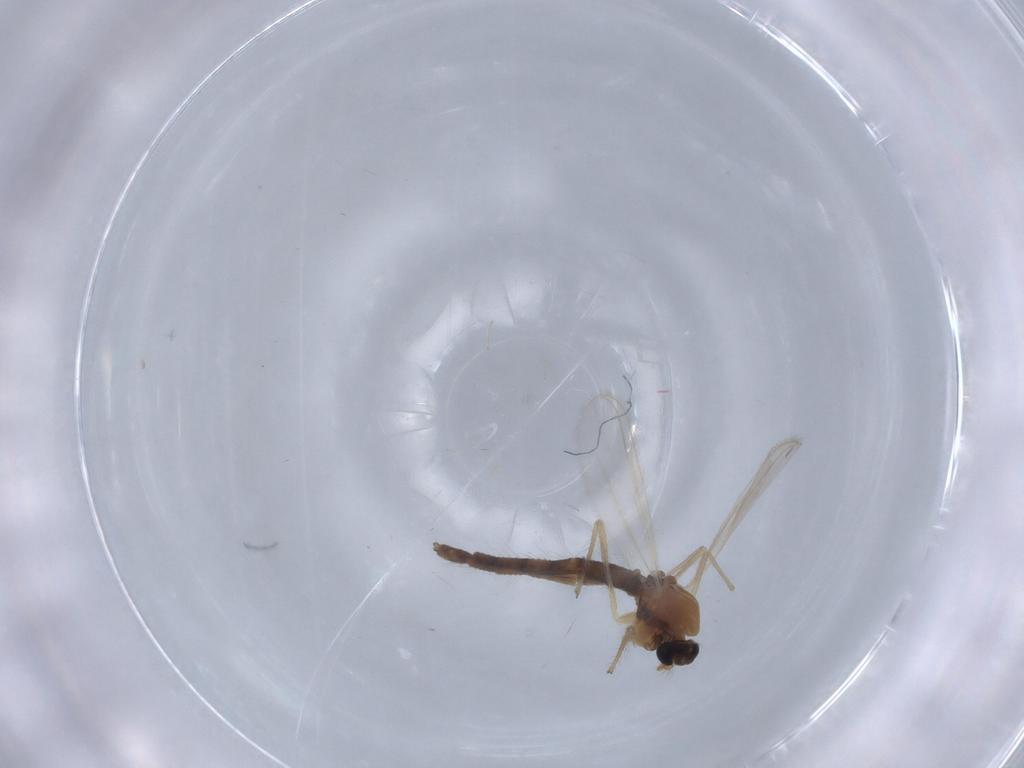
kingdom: Animalia
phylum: Arthropoda
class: Insecta
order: Diptera
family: Chironomidae
